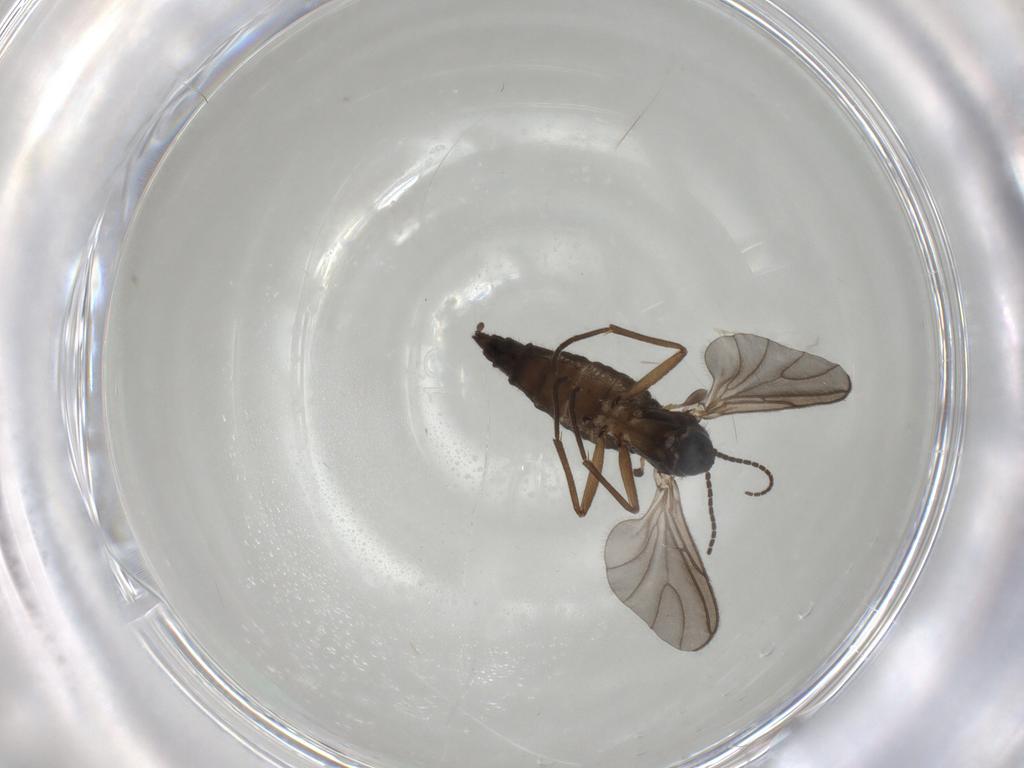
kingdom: Animalia
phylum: Arthropoda
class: Insecta
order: Diptera
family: Sciaridae
